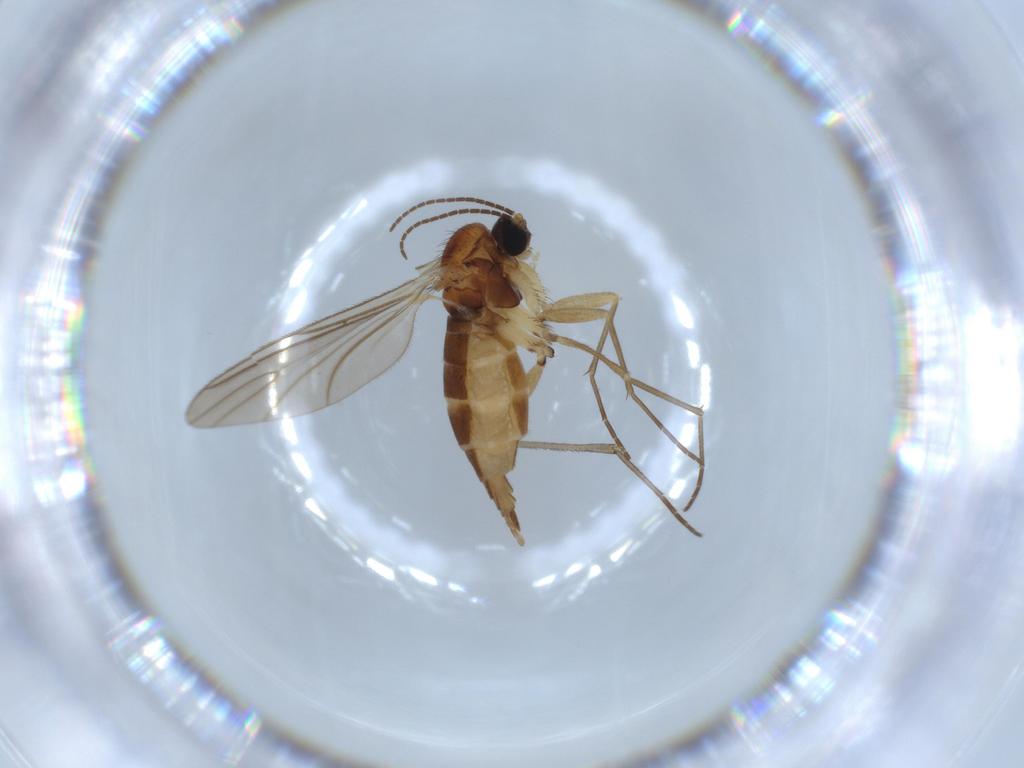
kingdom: Animalia
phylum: Arthropoda
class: Insecta
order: Diptera
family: Sciaridae
